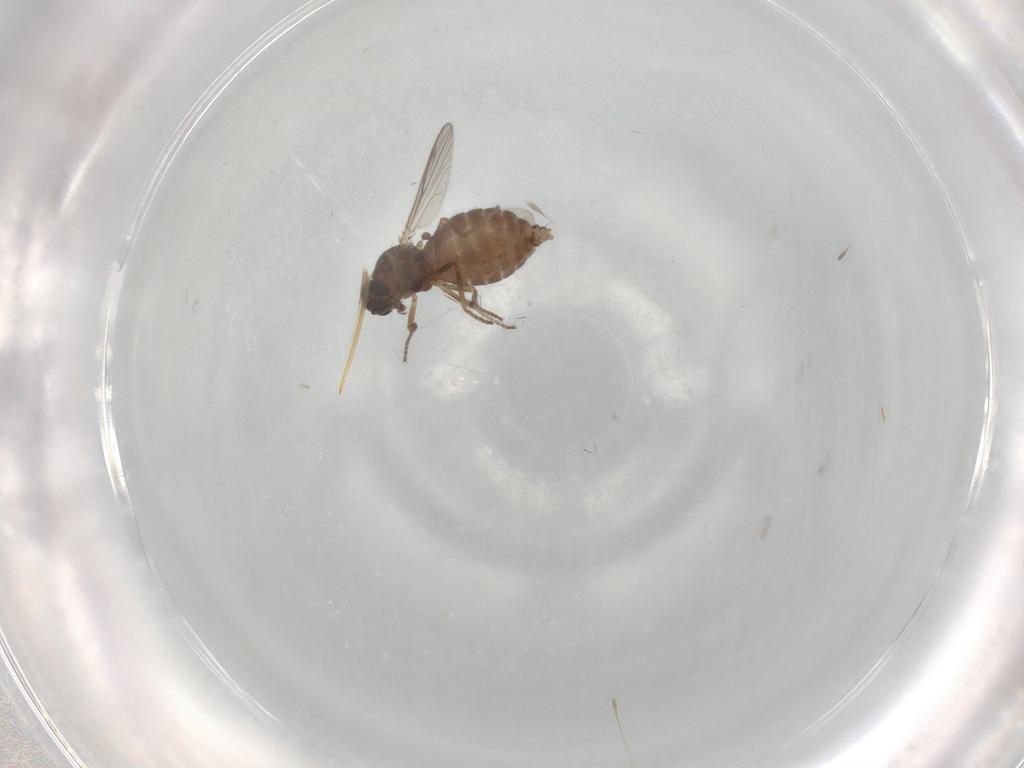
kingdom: Animalia
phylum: Arthropoda
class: Insecta
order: Diptera
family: Ceratopogonidae
